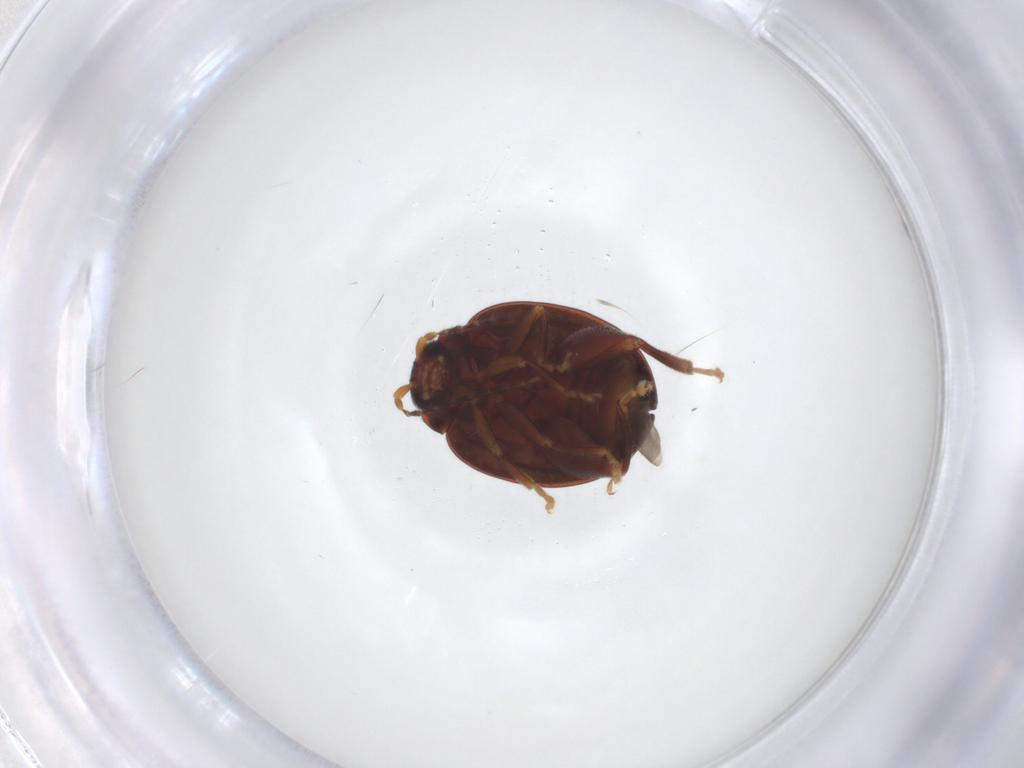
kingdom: Animalia
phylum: Arthropoda
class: Insecta
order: Coleoptera
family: Chrysomelidae
